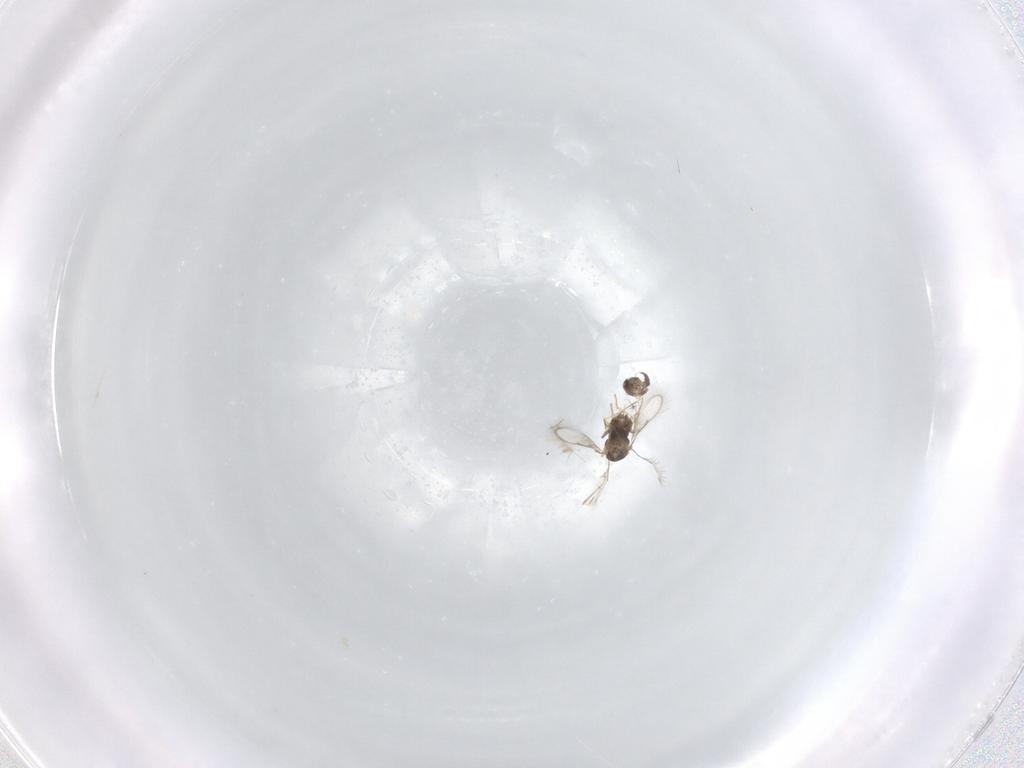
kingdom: Animalia
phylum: Arthropoda
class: Insecta
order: Hymenoptera
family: Aphelinidae
